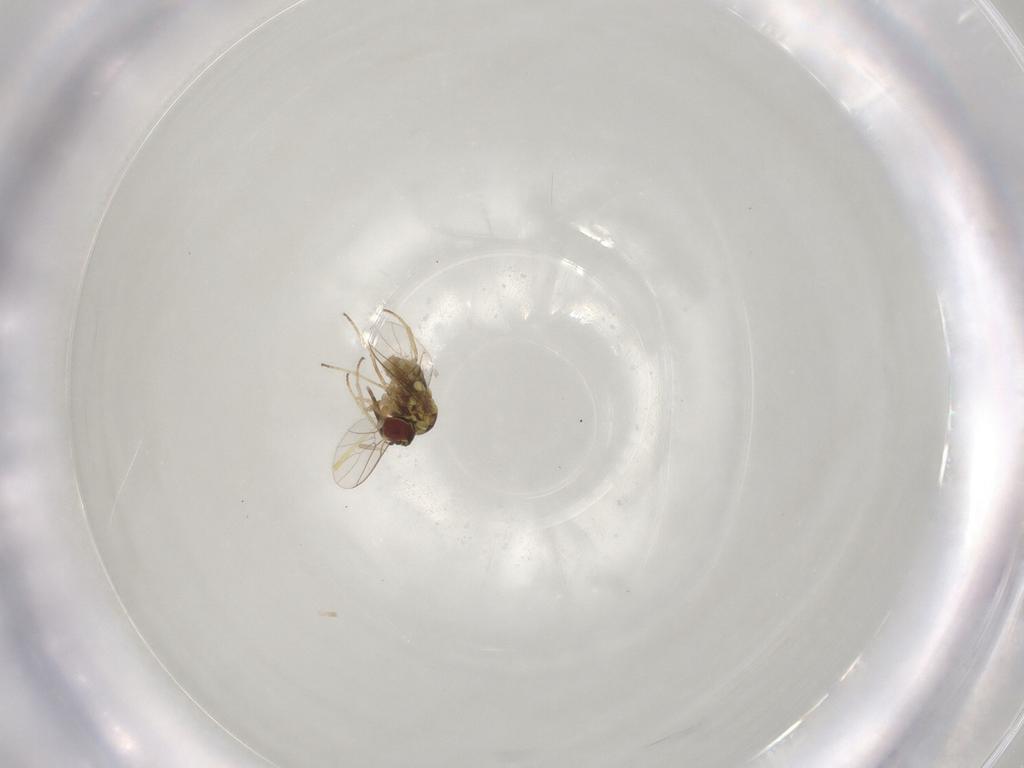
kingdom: Animalia
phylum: Arthropoda
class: Insecta
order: Diptera
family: Mythicomyiidae
